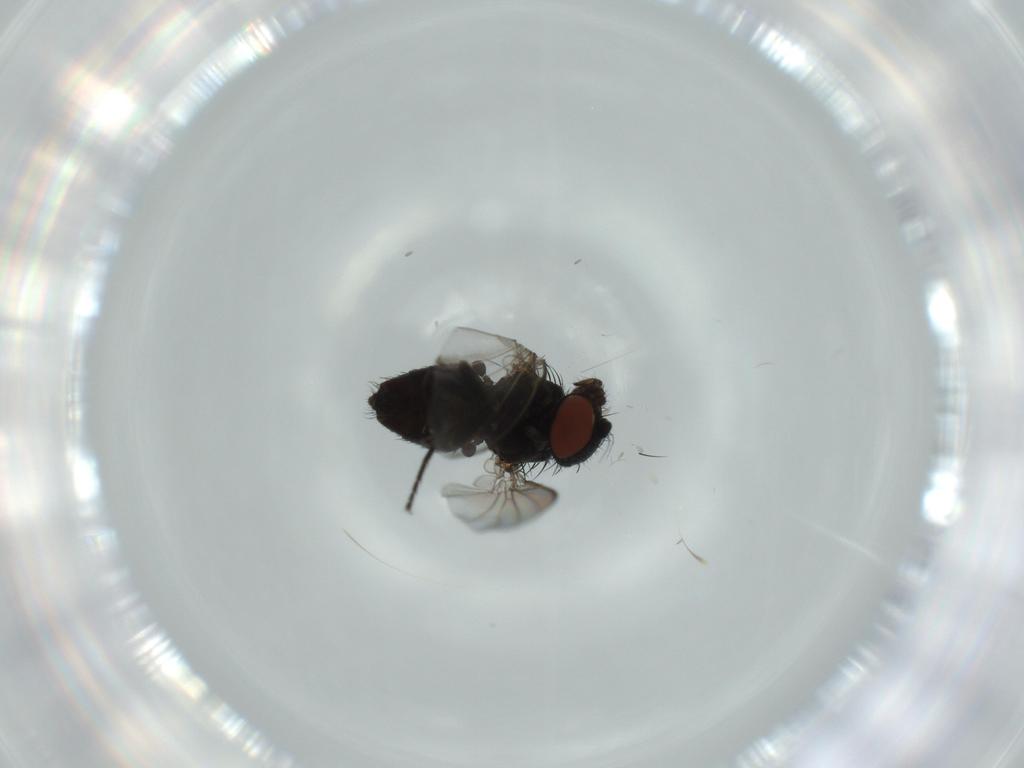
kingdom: Animalia
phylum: Arthropoda
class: Insecta
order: Diptera
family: Ceratopogonidae
